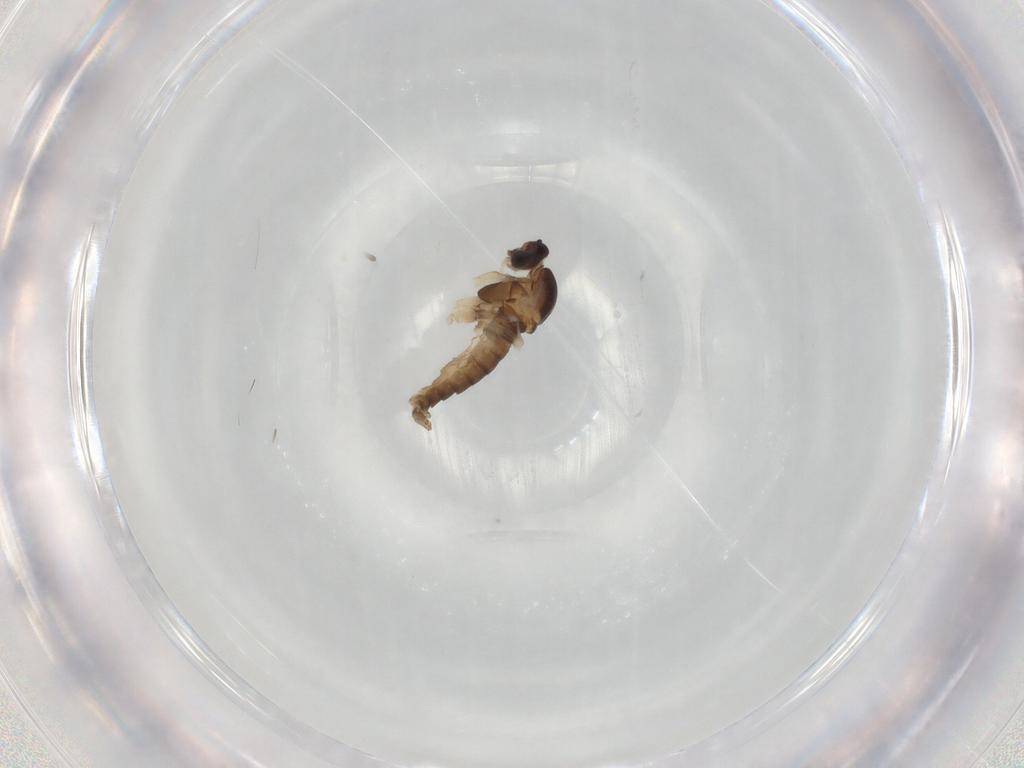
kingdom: Animalia
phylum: Arthropoda
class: Insecta
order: Diptera
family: Cecidomyiidae
